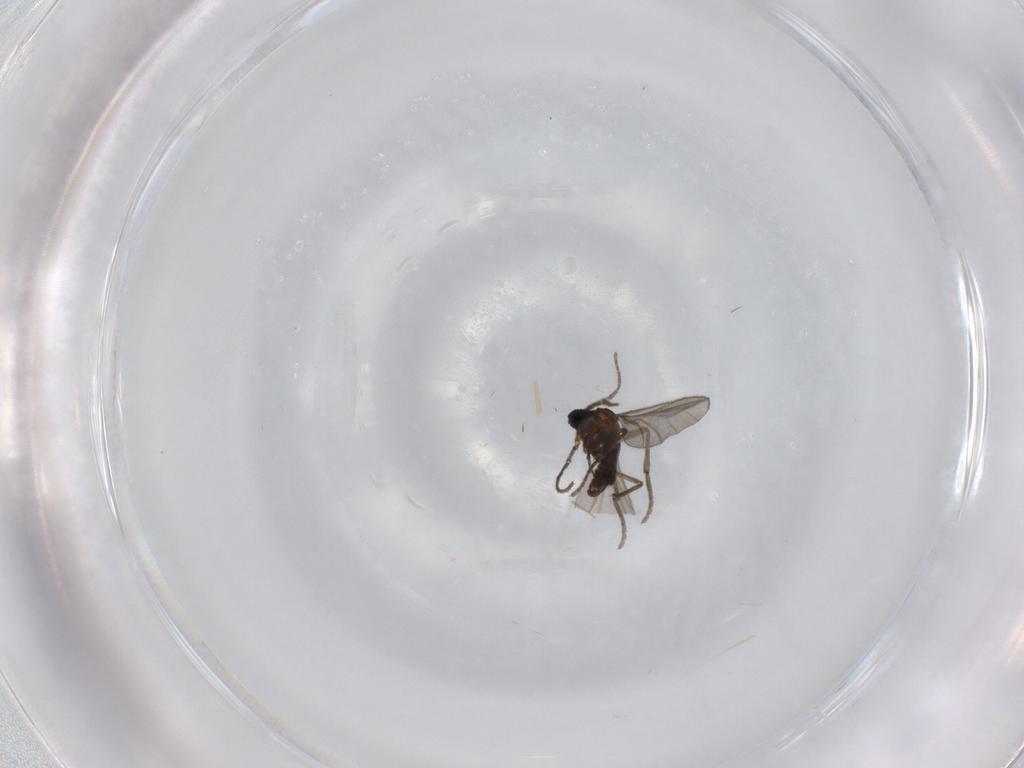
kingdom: Animalia
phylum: Arthropoda
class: Insecta
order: Diptera
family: Sciaridae
